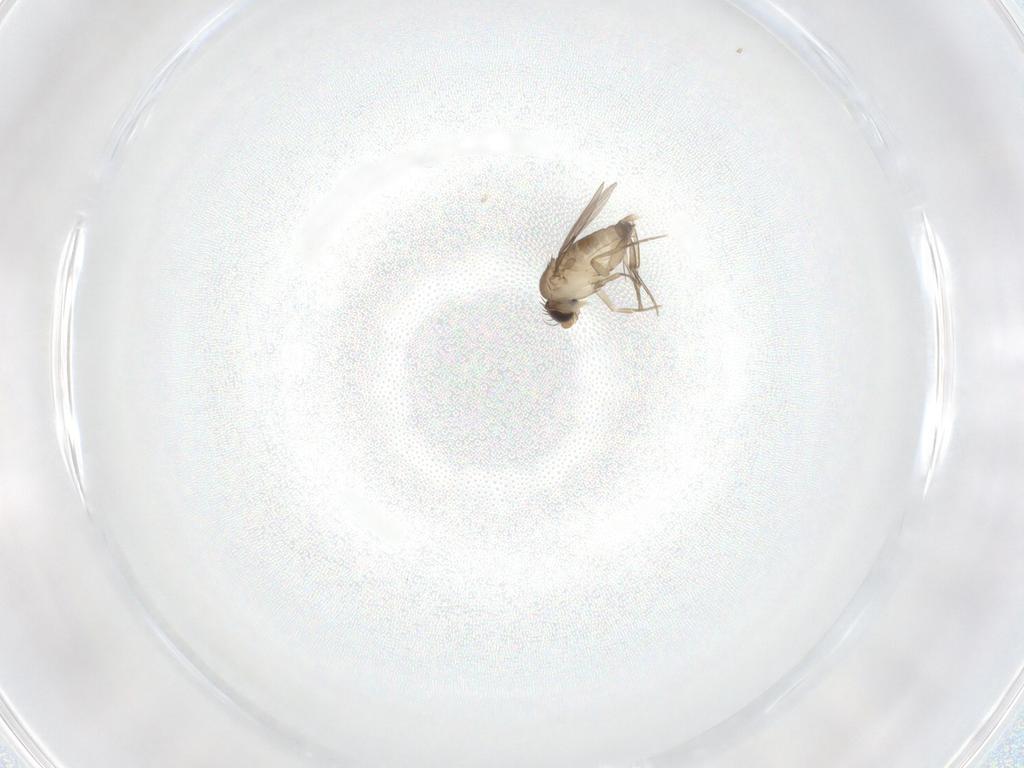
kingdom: Animalia
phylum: Arthropoda
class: Insecta
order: Diptera
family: Phoridae
